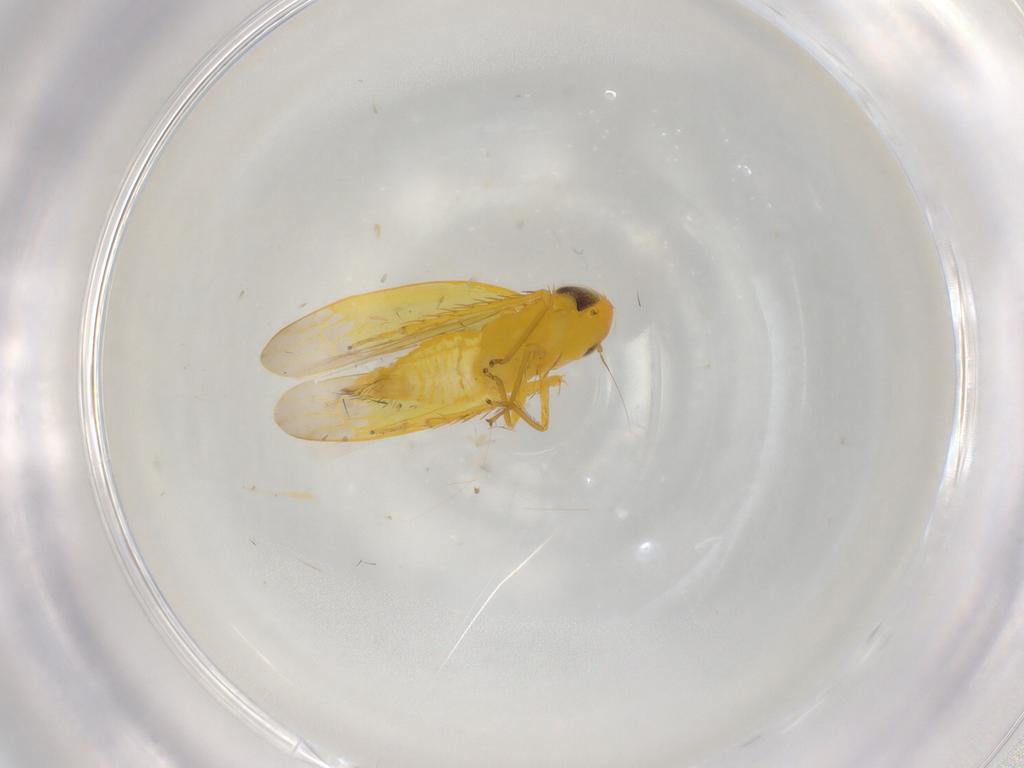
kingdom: Animalia
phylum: Arthropoda
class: Insecta
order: Hemiptera
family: Cicadellidae
